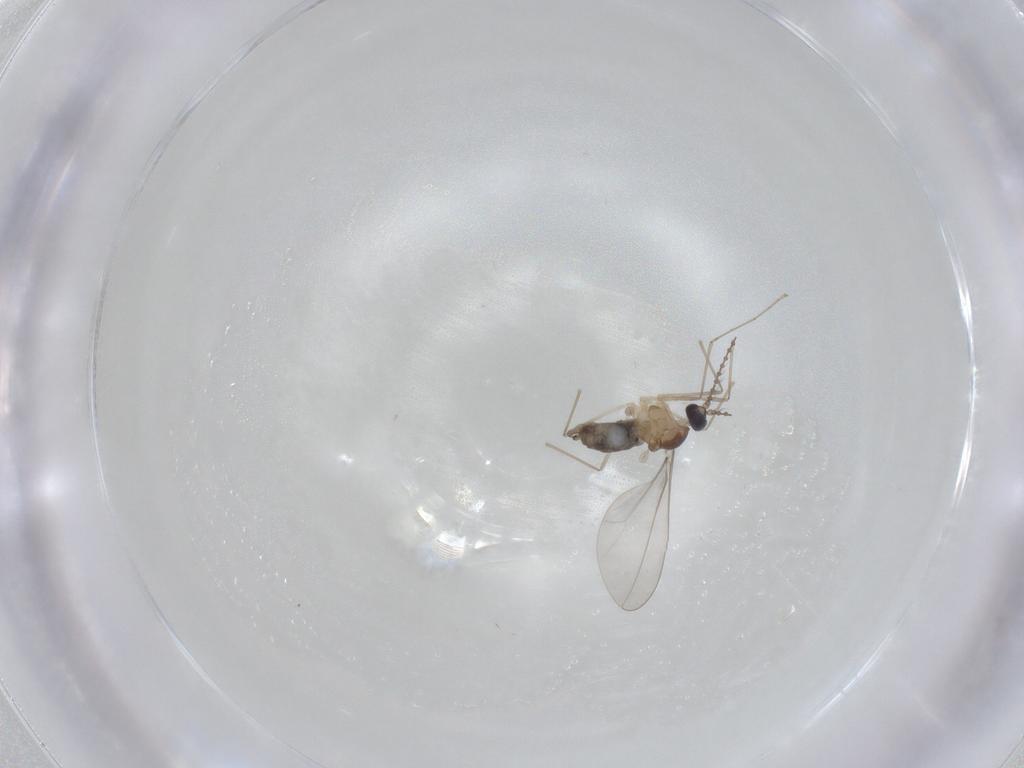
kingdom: Animalia
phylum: Arthropoda
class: Insecta
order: Diptera
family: Cecidomyiidae
